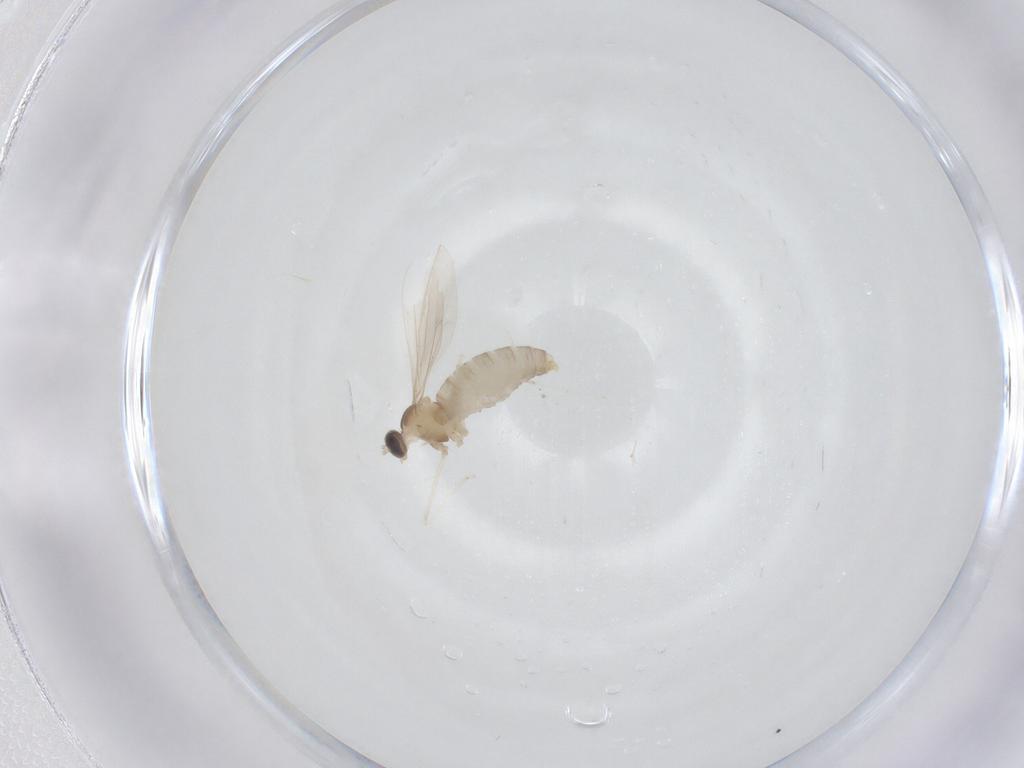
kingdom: Animalia
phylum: Arthropoda
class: Insecta
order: Diptera
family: Cecidomyiidae
